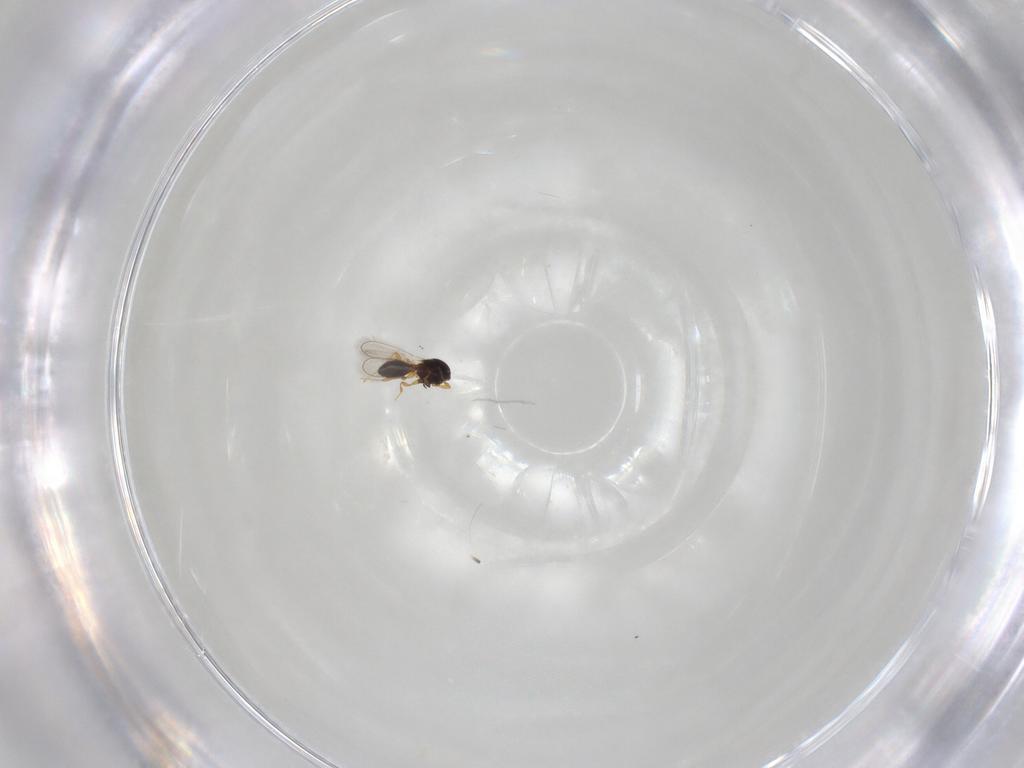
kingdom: Animalia
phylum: Arthropoda
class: Insecta
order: Hymenoptera
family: Platygastridae
